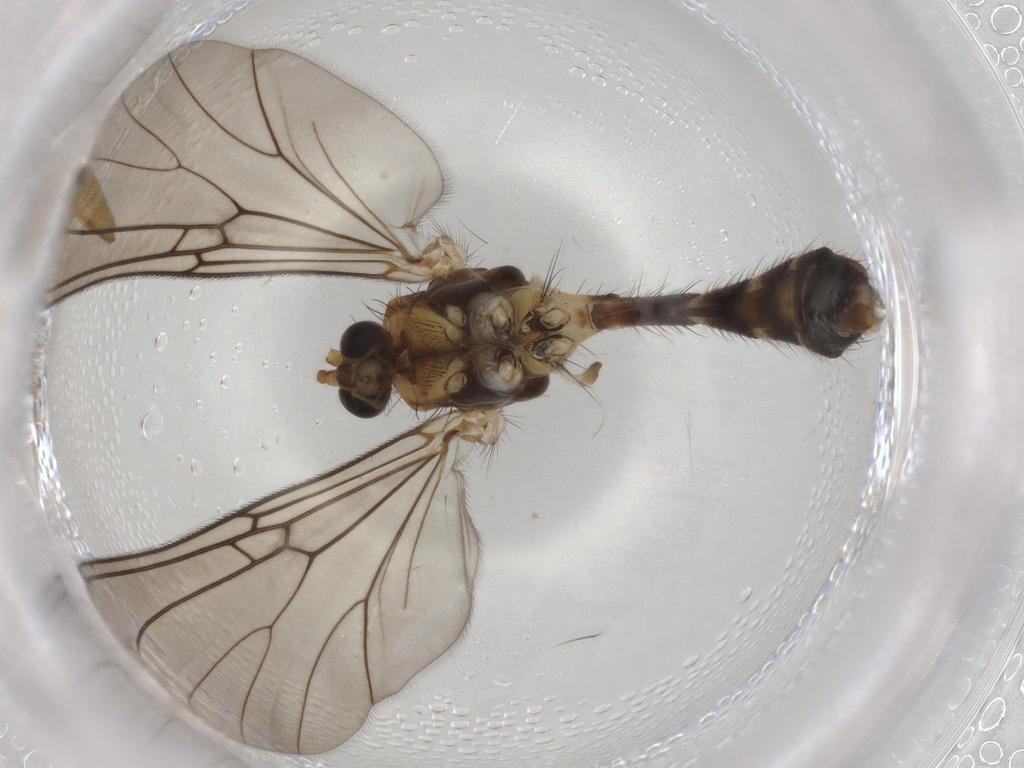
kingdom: Animalia
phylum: Arthropoda
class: Insecta
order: Diptera
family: Mycetophilidae
